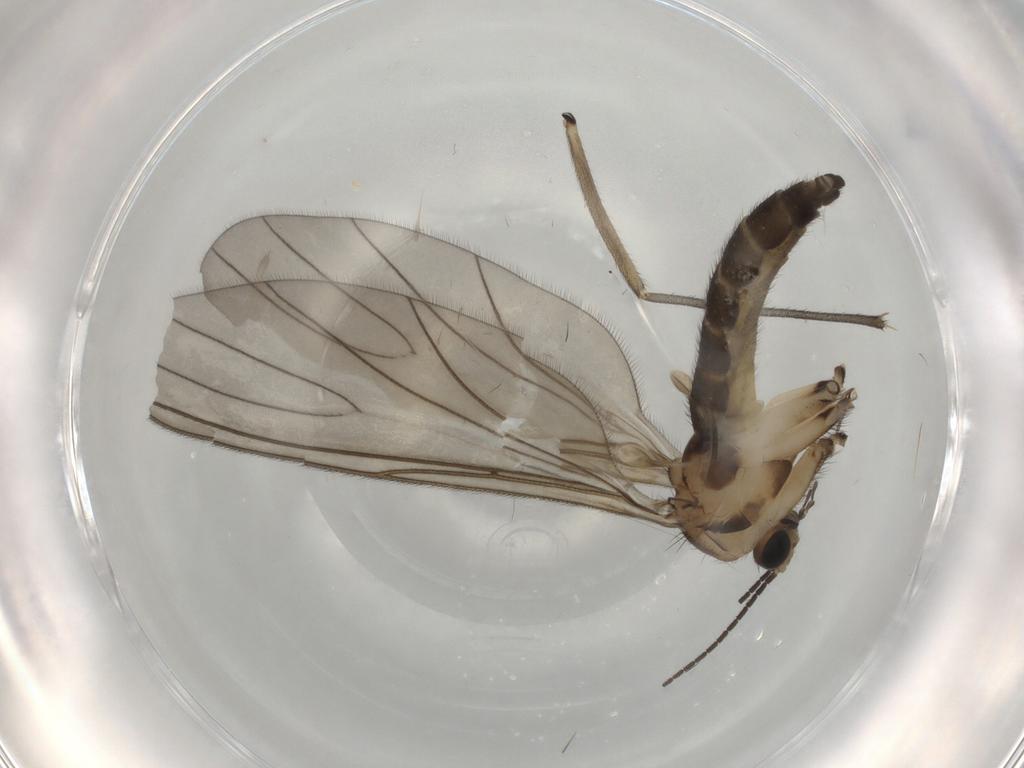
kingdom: Animalia
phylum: Arthropoda
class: Insecta
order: Diptera
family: Sciaridae
